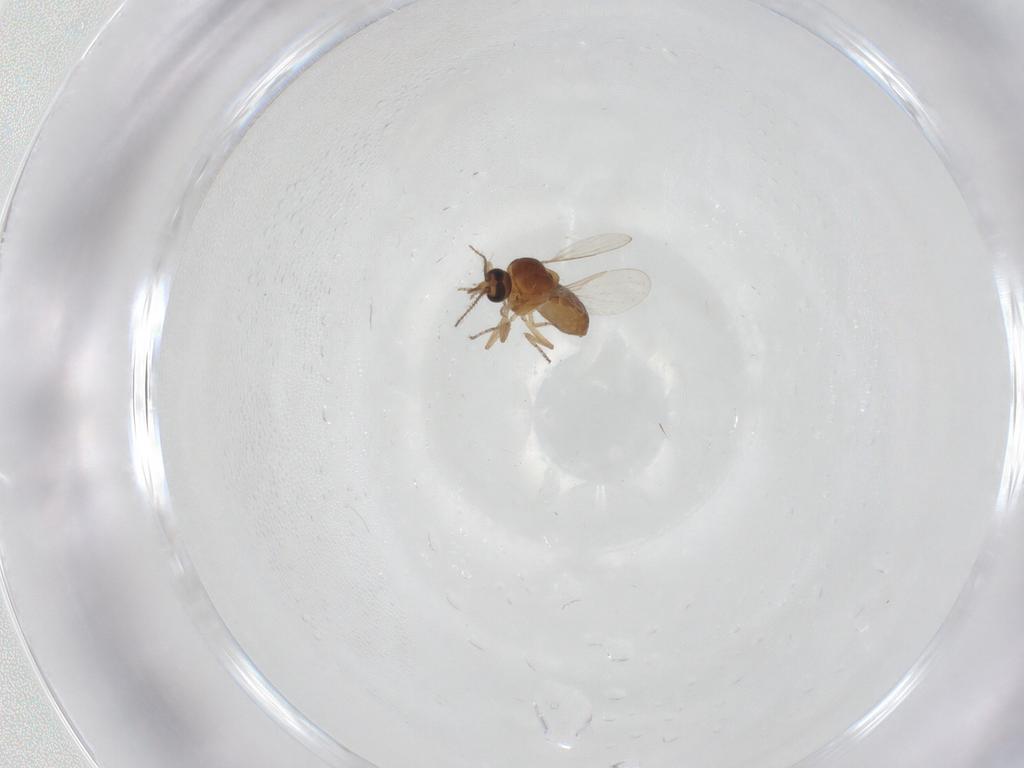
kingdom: Animalia
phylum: Arthropoda
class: Insecta
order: Diptera
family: Ceratopogonidae
